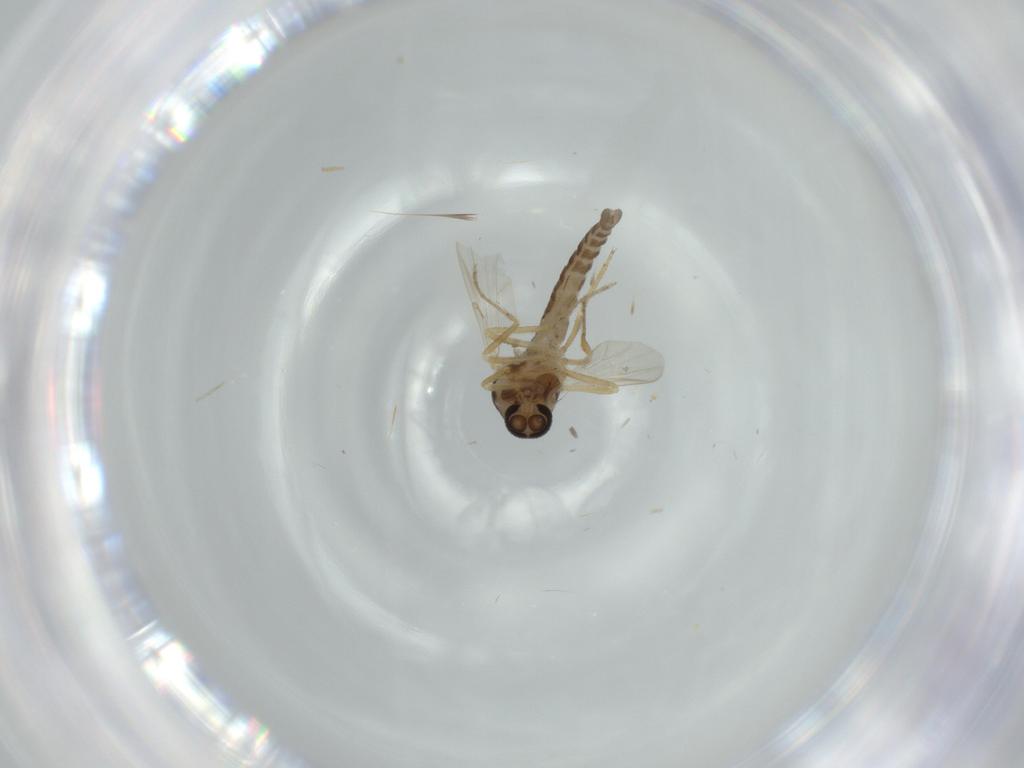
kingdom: Animalia
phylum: Arthropoda
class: Insecta
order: Diptera
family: Ceratopogonidae
